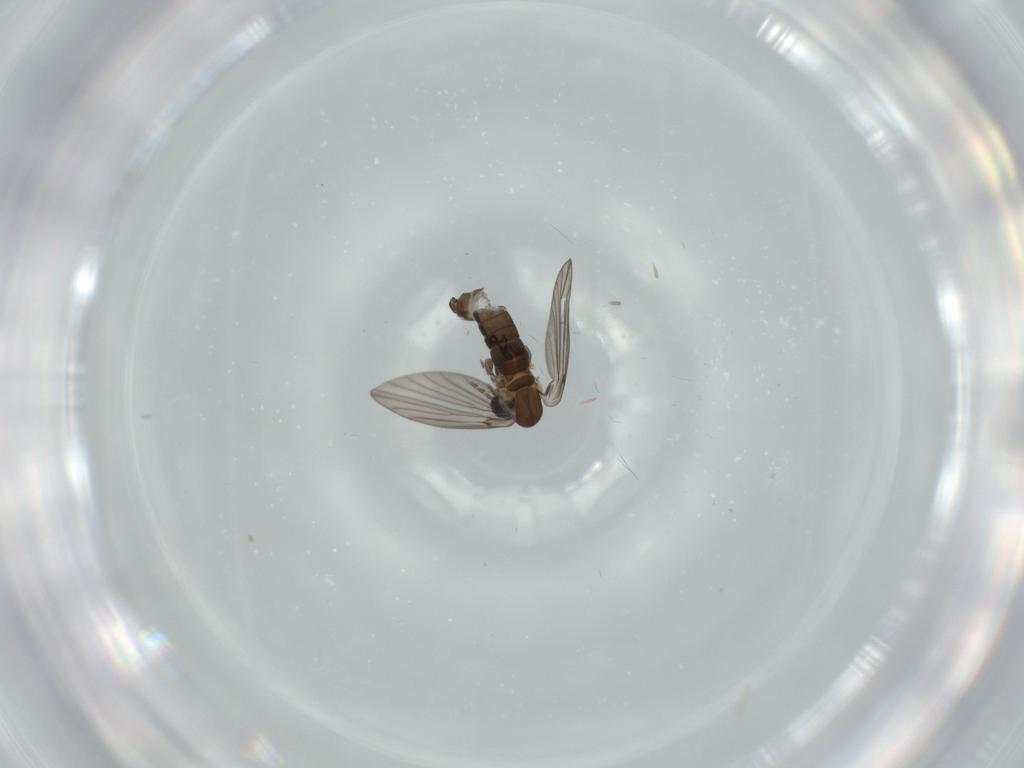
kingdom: Animalia
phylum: Arthropoda
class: Insecta
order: Diptera
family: Psychodidae
